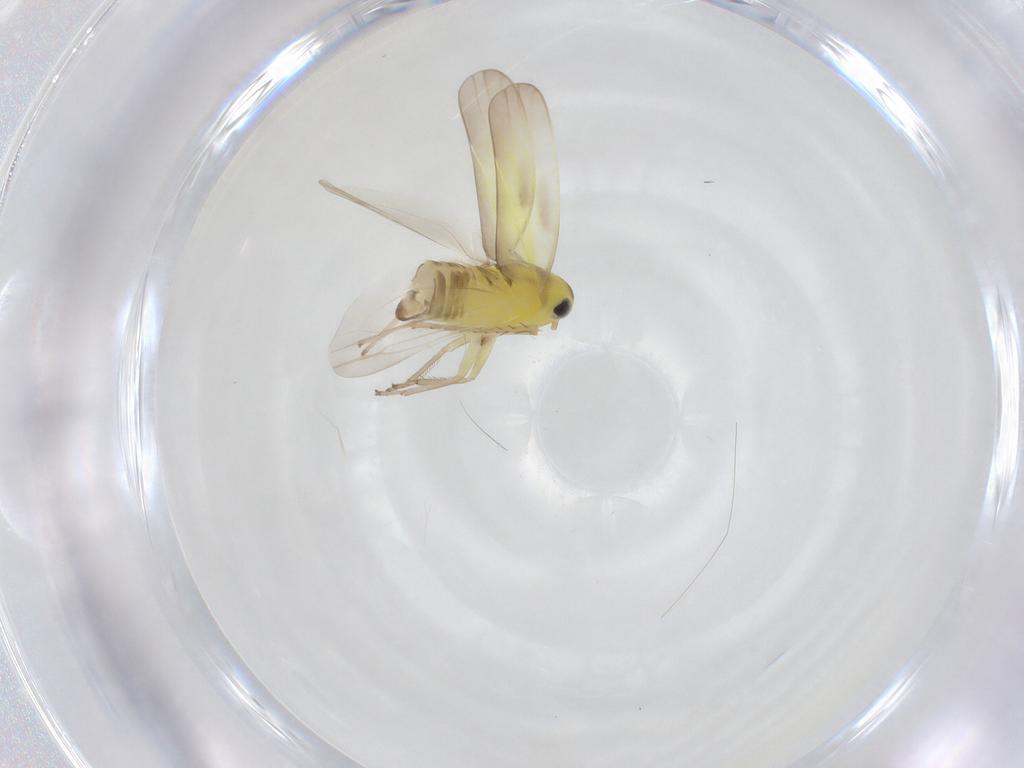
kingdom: Animalia
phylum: Arthropoda
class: Insecta
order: Hemiptera
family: Cicadellidae
